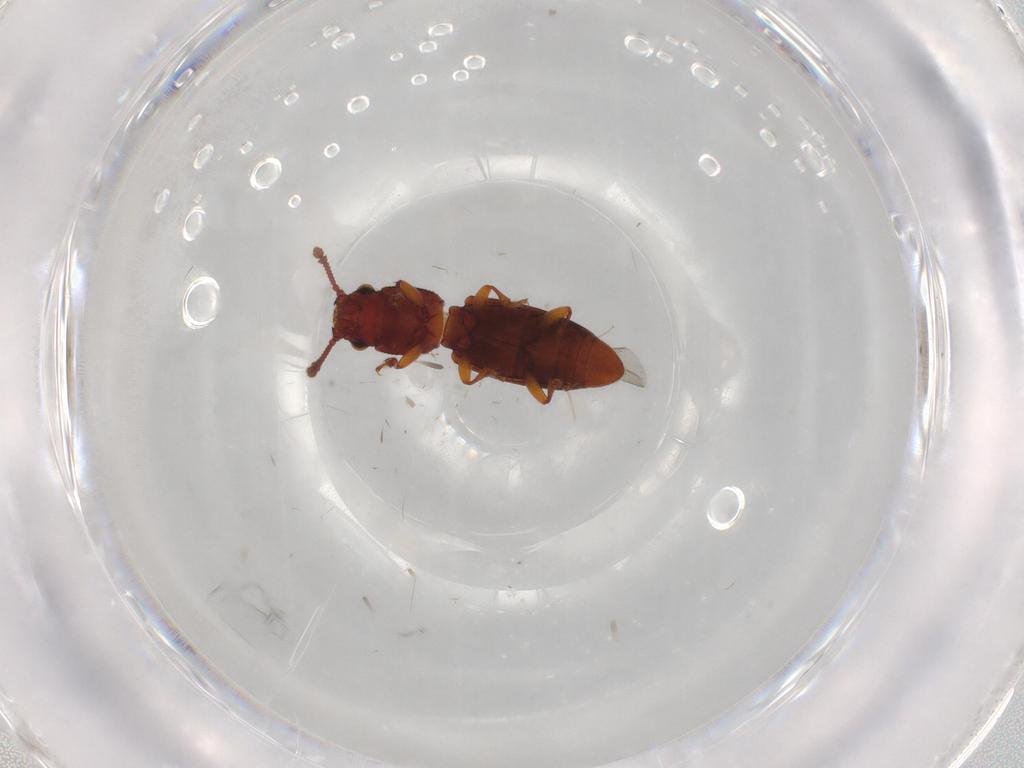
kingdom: Animalia
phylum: Arthropoda
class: Insecta
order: Coleoptera
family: Monotomidae
